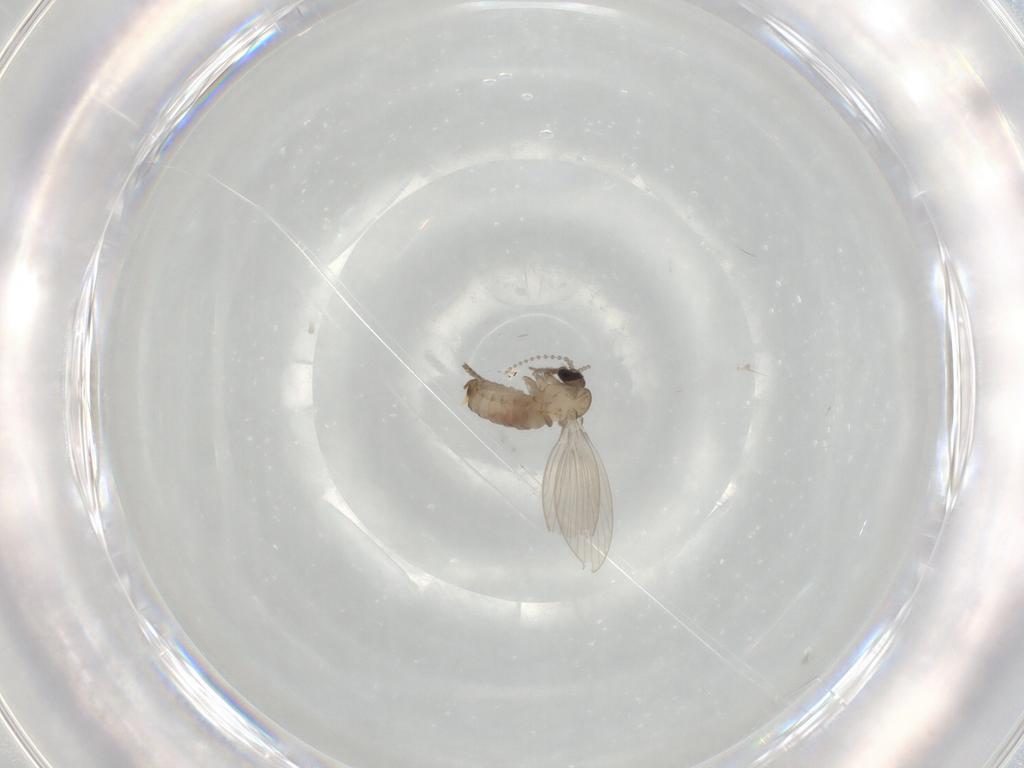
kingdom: Animalia
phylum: Arthropoda
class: Insecta
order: Diptera
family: Psychodidae
